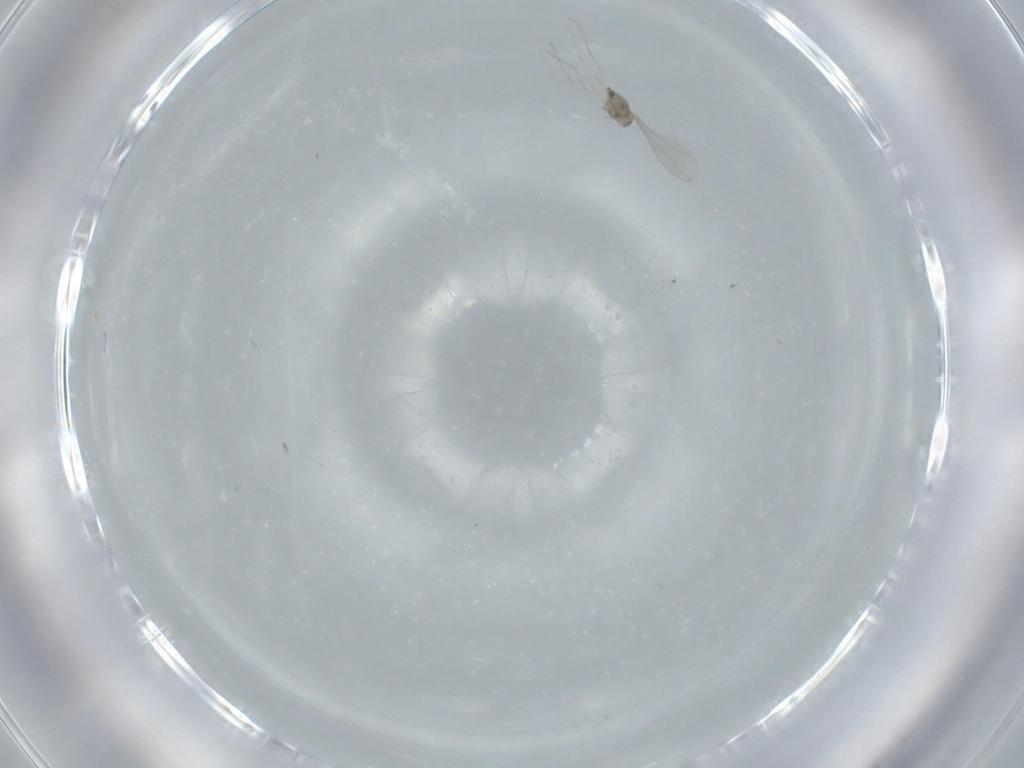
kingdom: Animalia
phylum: Arthropoda
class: Insecta
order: Diptera
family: Cecidomyiidae
